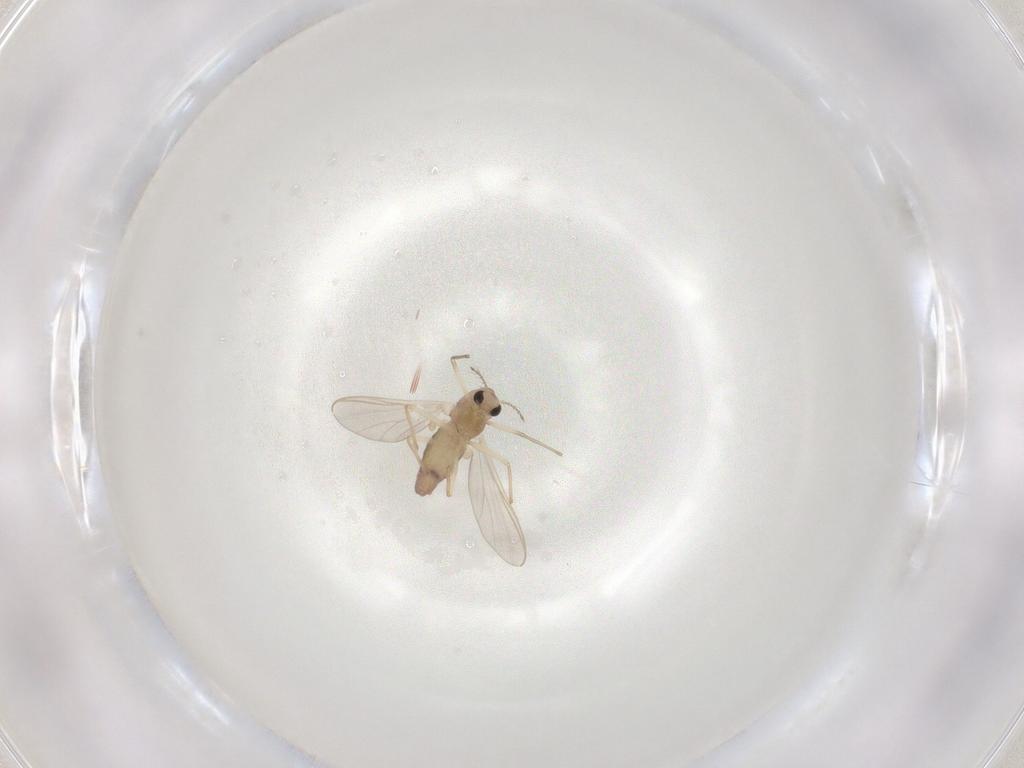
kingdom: Animalia
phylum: Arthropoda
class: Insecta
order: Diptera
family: Chironomidae
